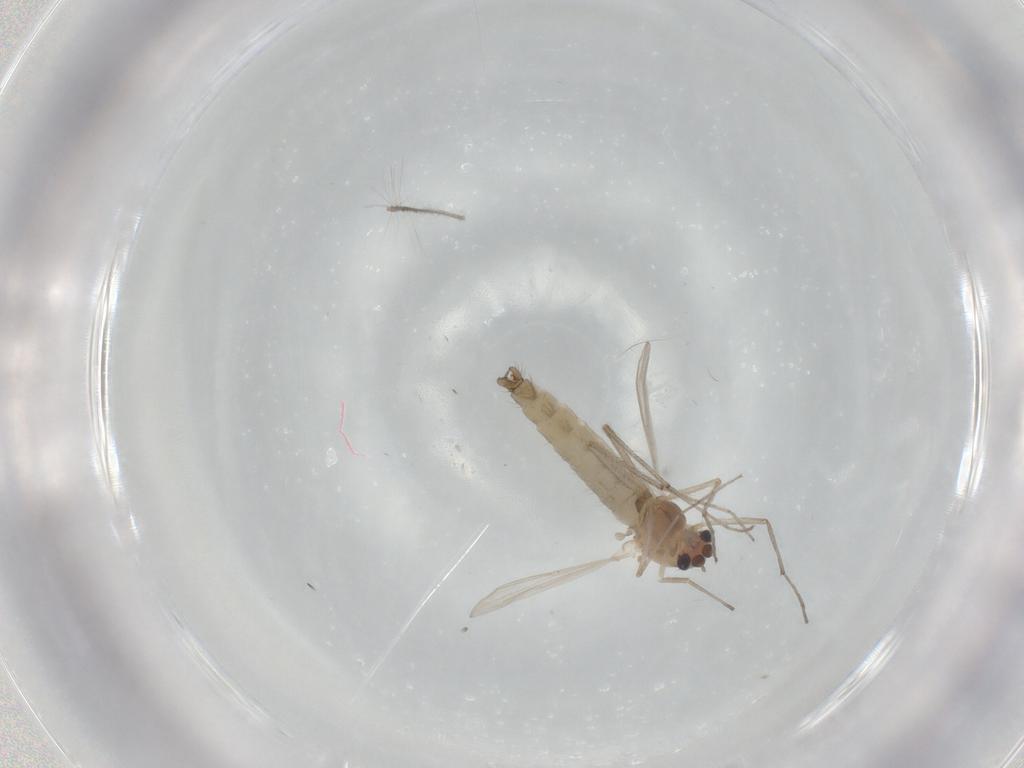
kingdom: Animalia
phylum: Arthropoda
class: Insecta
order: Diptera
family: Chironomidae
